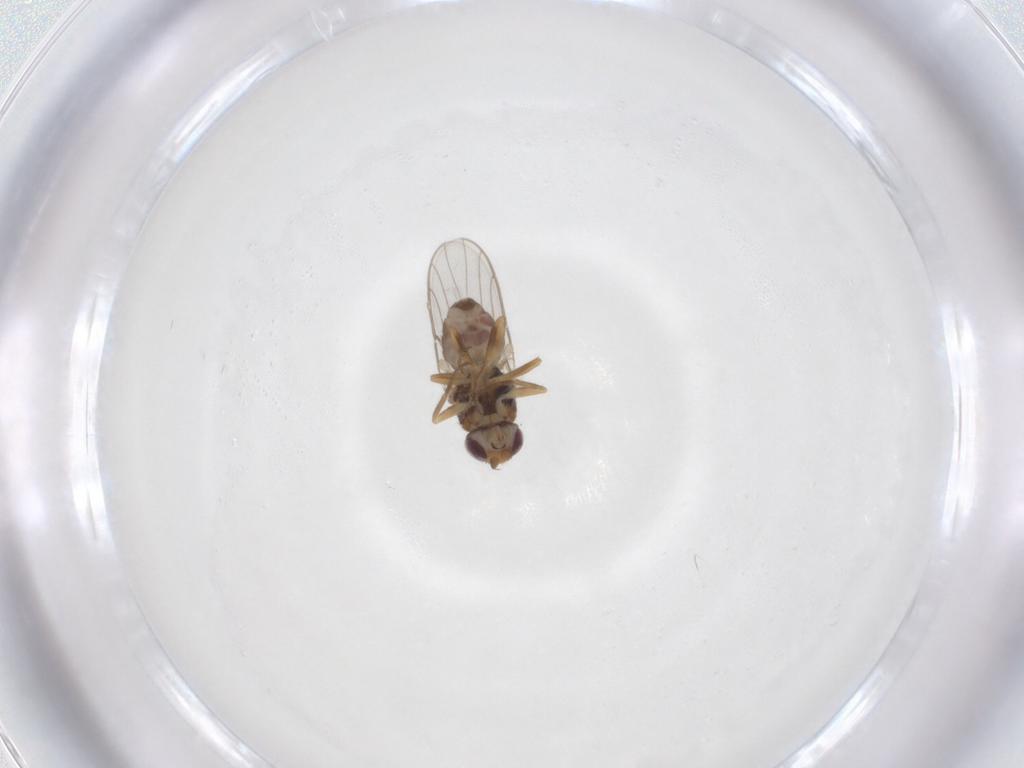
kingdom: Animalia
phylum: Arthropoda
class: Insecta
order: Diptera
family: Chloropidae
